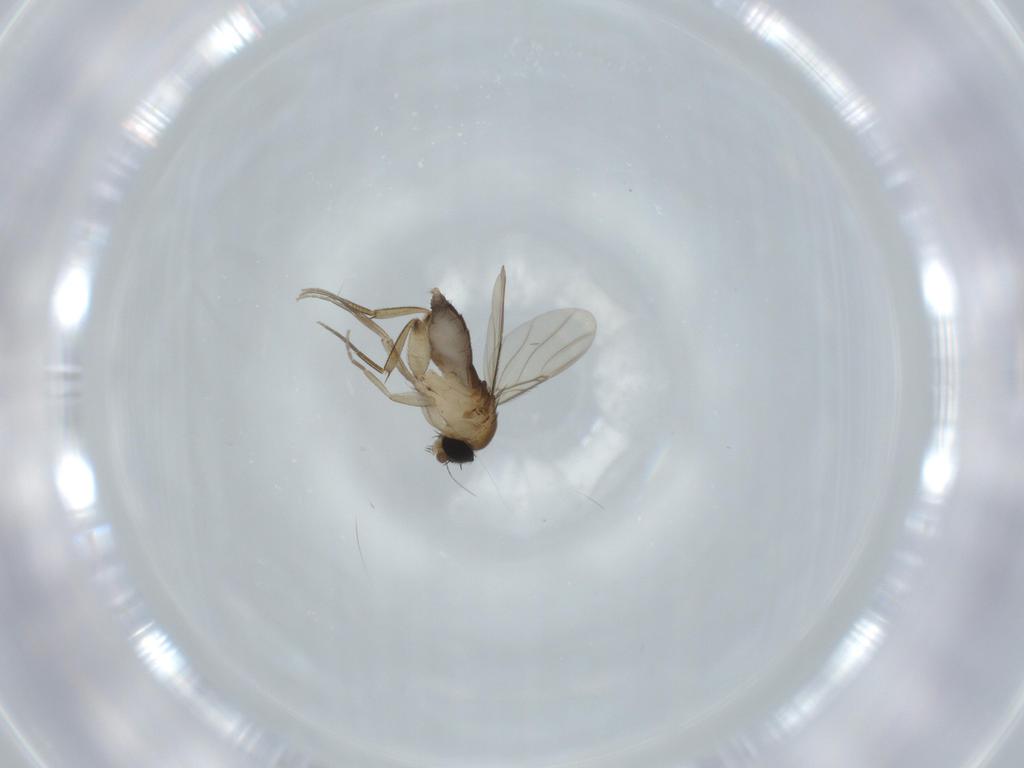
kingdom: Animalia
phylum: Arthropoda
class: Insecta
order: Diptera
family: Phoridae
